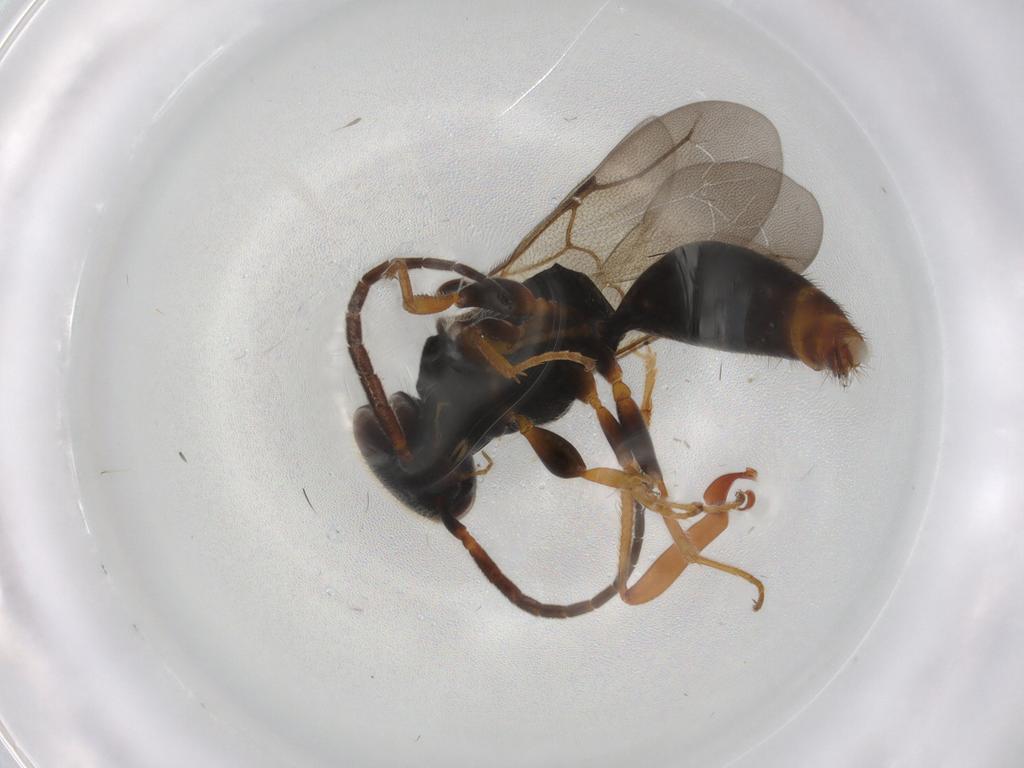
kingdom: Animalia
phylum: Arthropoda
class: Insecta
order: Hymenoptera
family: Bethylidae
